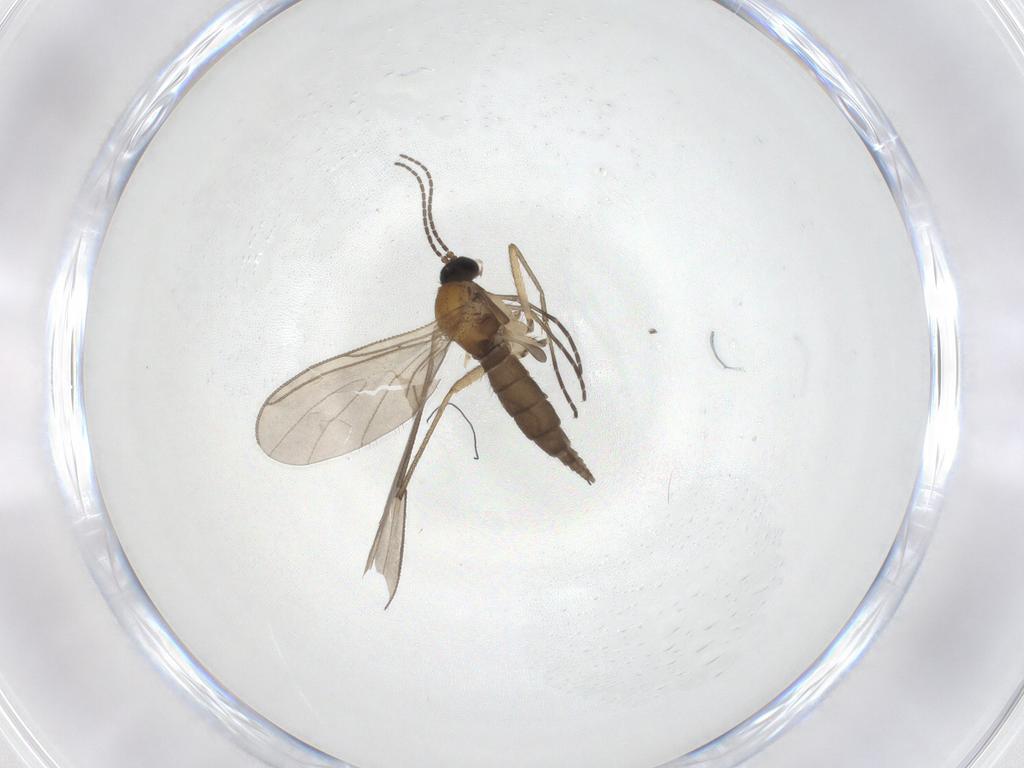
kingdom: Animalia
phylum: Arthropoda
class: Insecta
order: Diptera
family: Sciaridae
